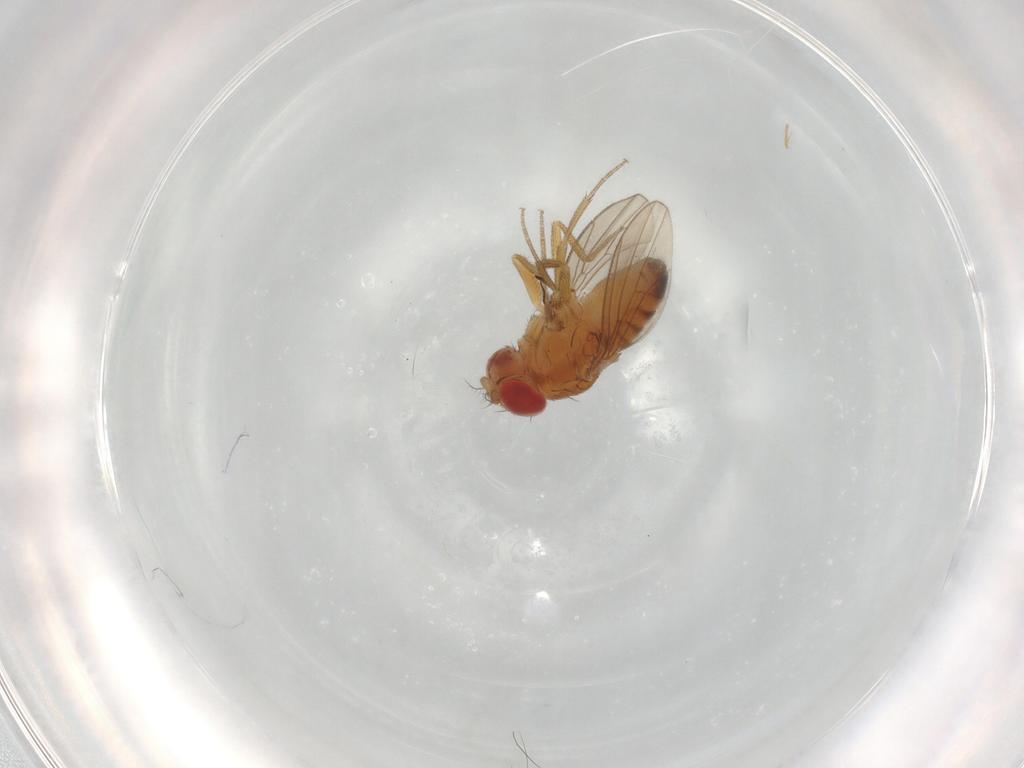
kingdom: Animalia
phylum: Arthropoda
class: Insecta
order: Diptera
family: Drosophilidae
